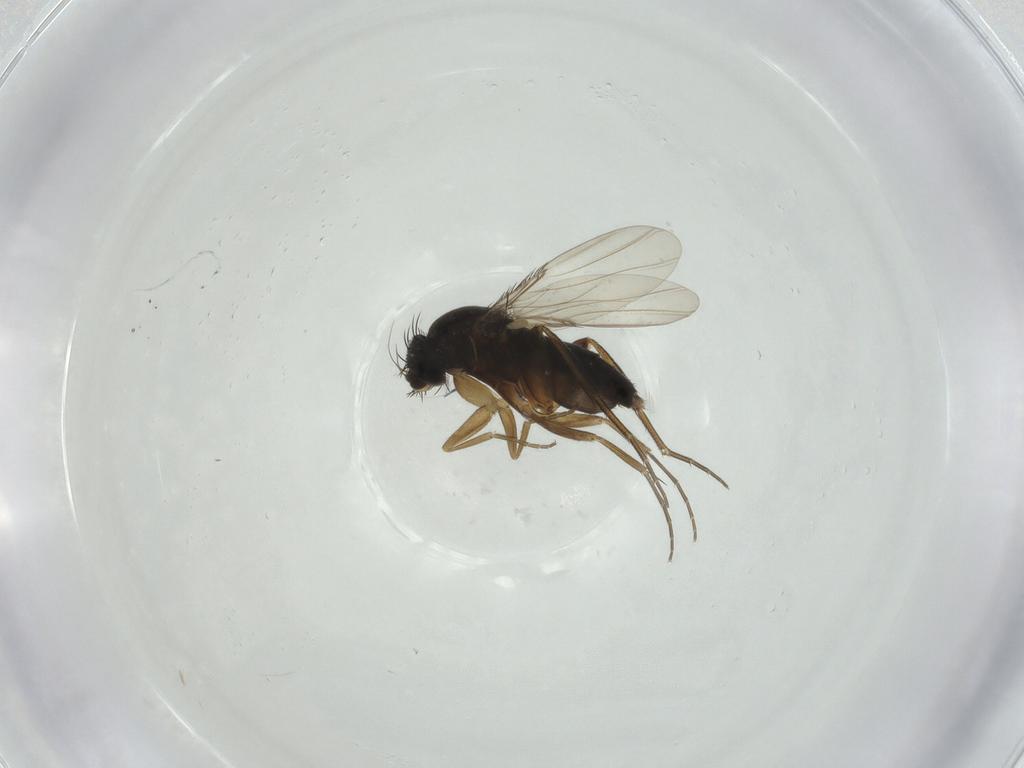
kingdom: Animalia
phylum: Arthropoda
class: Insecta
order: Diptera
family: Phoridae
